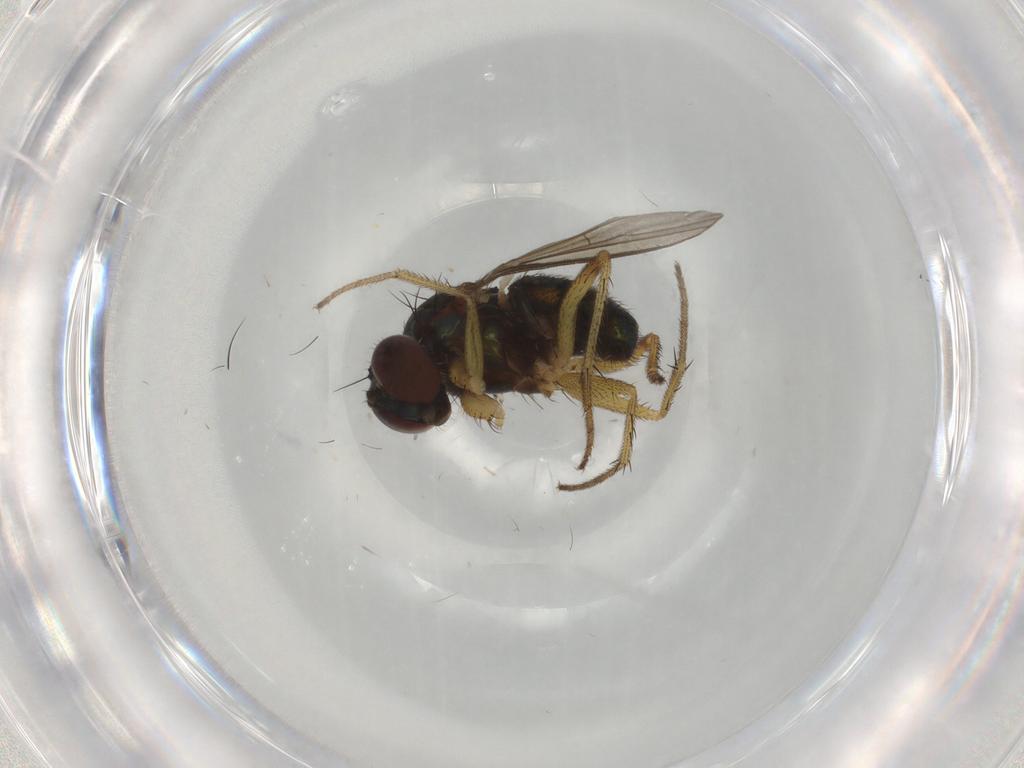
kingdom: Animalia
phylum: Arthropoda
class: Insecta
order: Diptera
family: Dolichopodidae
